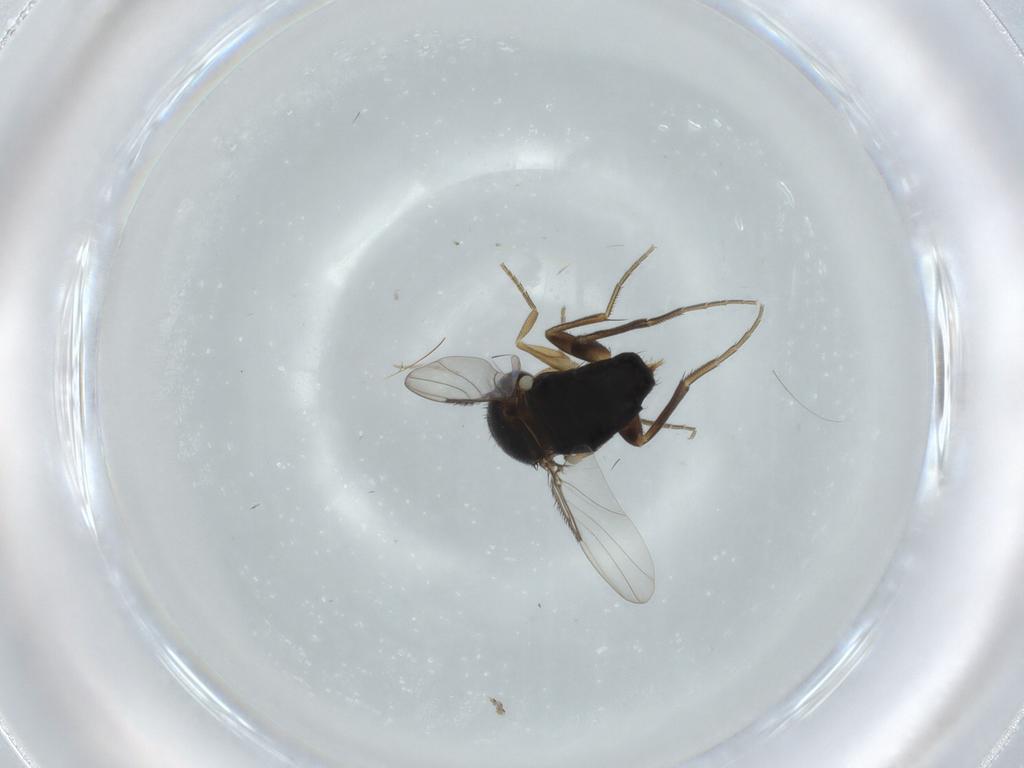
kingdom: Animalia
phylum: Arthropoda
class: Insecta
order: Diptera
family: Phoridae
